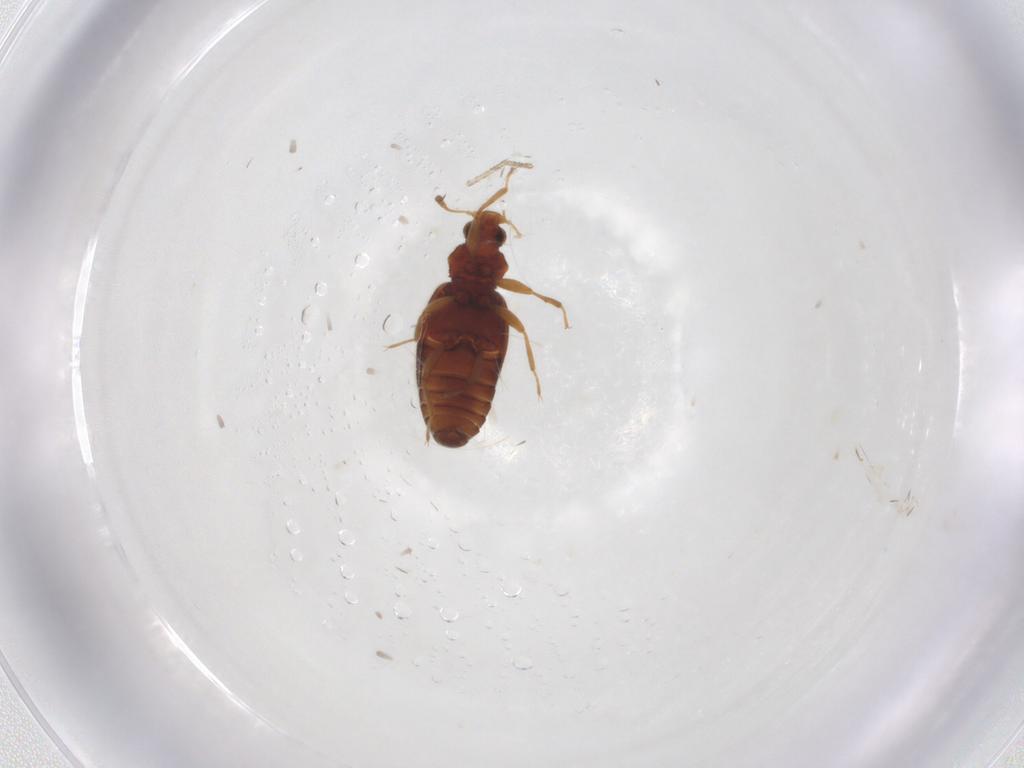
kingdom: Animalia
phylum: Arthropoda
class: Insecta
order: Coleoptera
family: Latridiidae
